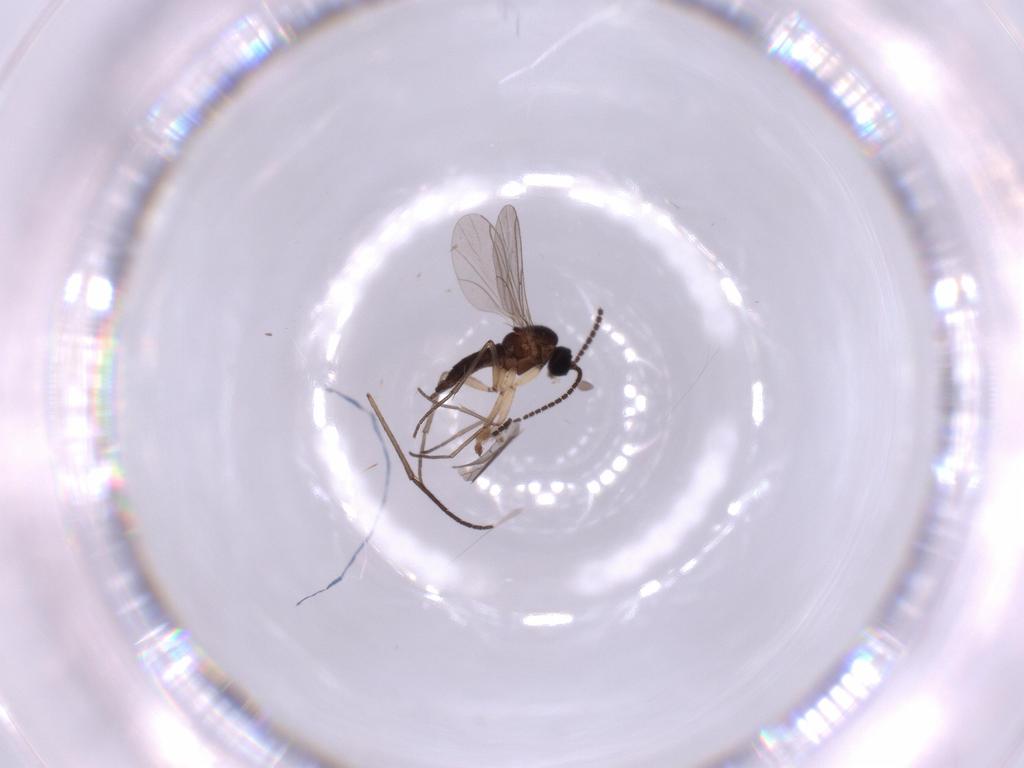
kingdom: Animalia
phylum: Arthropoda
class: Insecta
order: Diptera
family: Sciaridae
